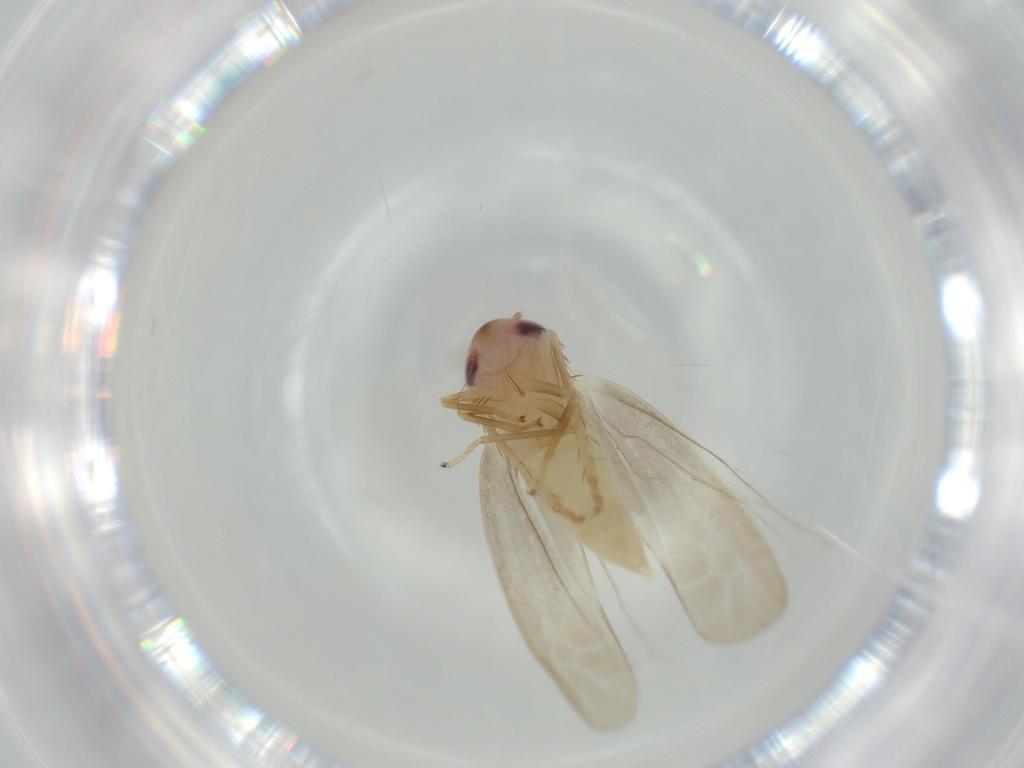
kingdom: Animalia
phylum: Arthropoda
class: Insecta
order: Hemiptera
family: Cicadellidae
